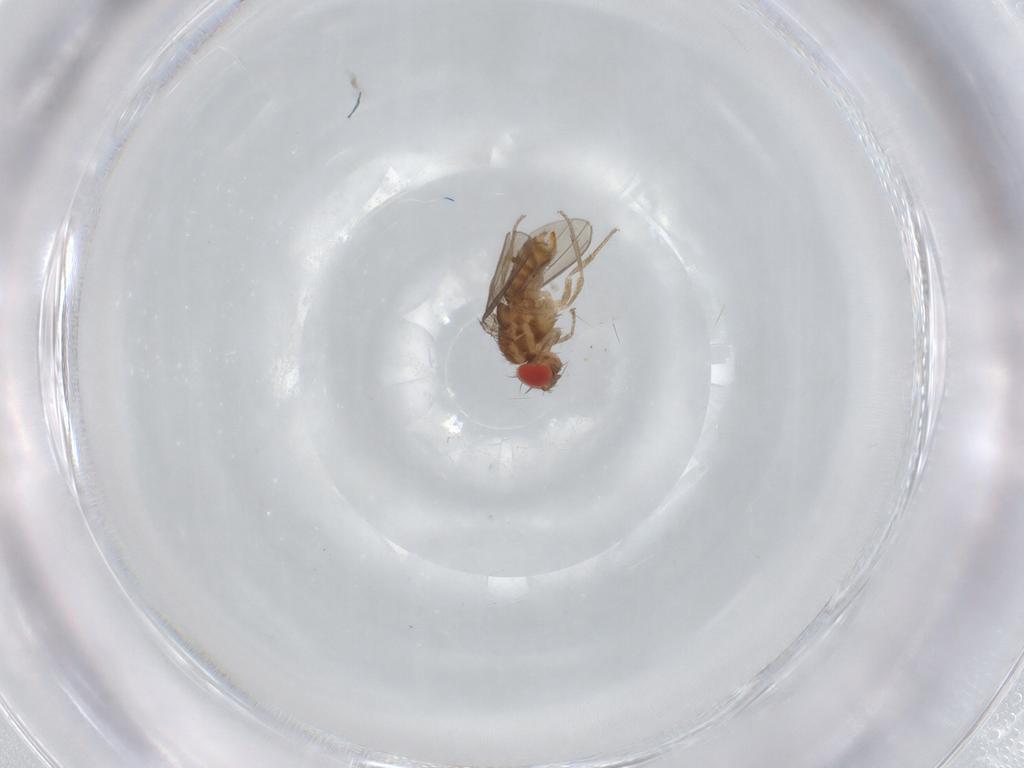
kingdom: Animalia
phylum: Arthropoda
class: Insecta
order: Diptera
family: Drosophilidae
